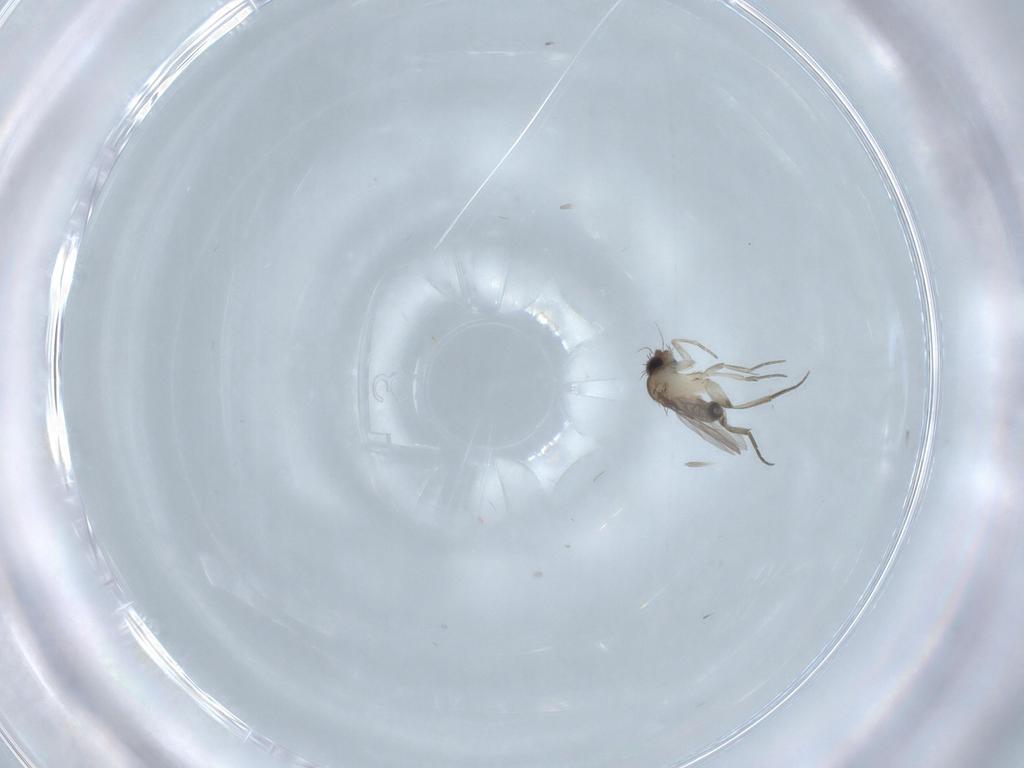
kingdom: Animalia
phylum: Arthropoda
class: Insecta
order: Diptera
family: Phoridae
